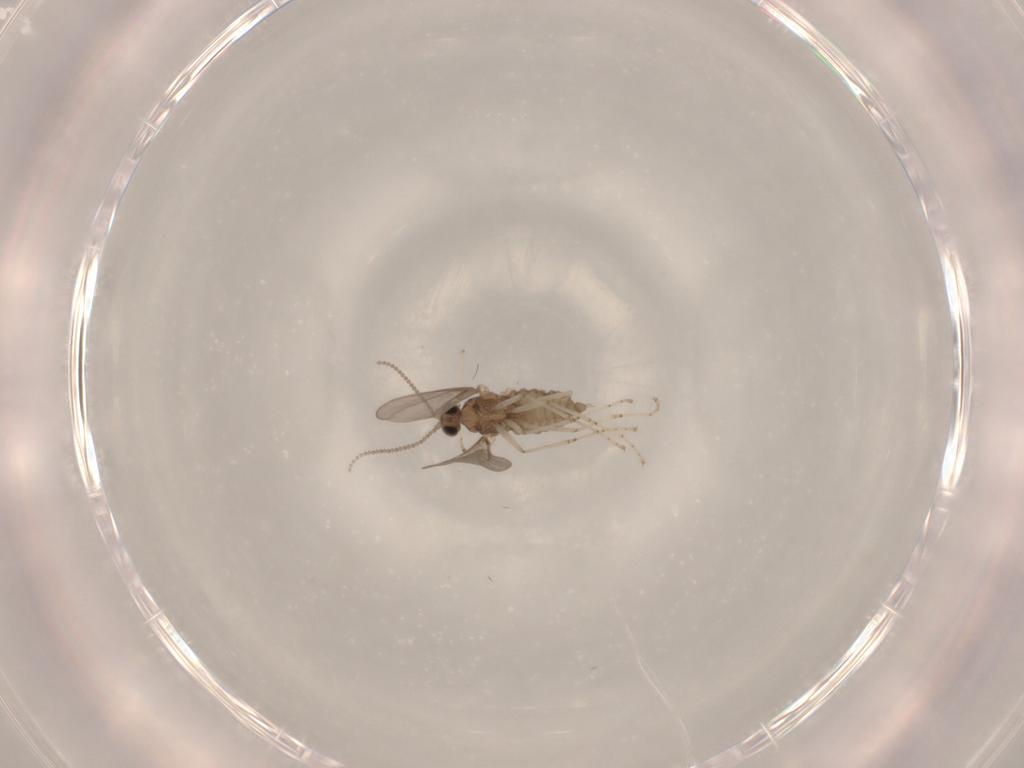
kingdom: Animalia
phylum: Arthropoda
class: Insecta
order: Diptera
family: Cecidomyiidae
